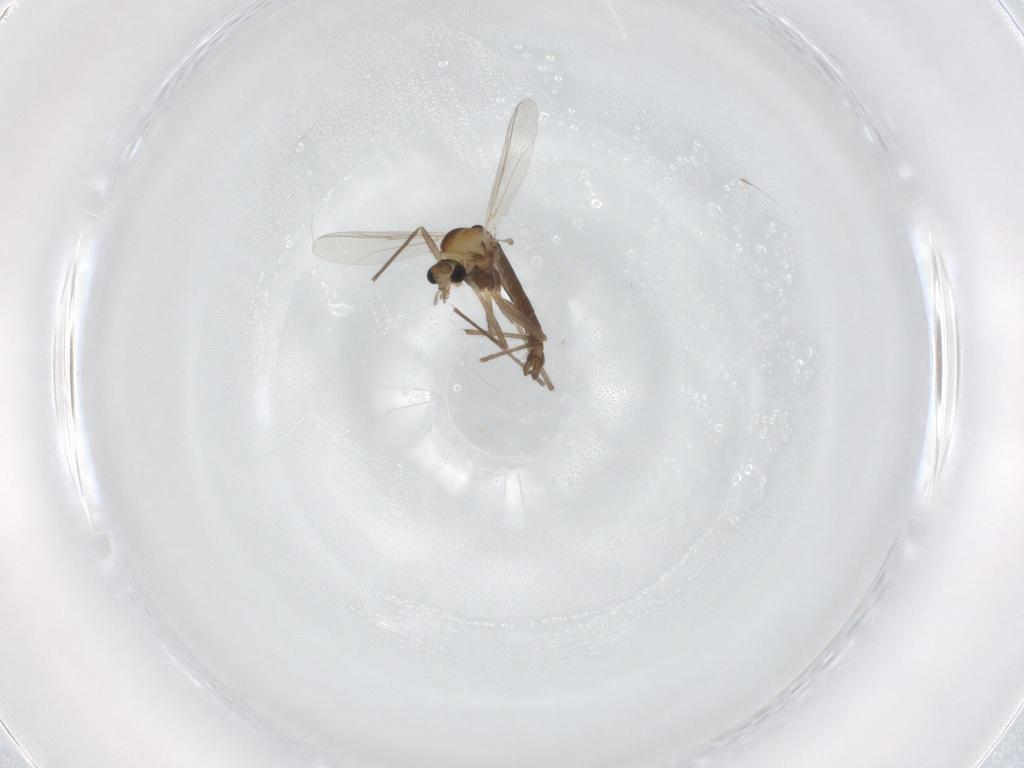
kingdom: Animalia
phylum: Arthropoda
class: Insecta
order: Diptera
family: Chironomidae
